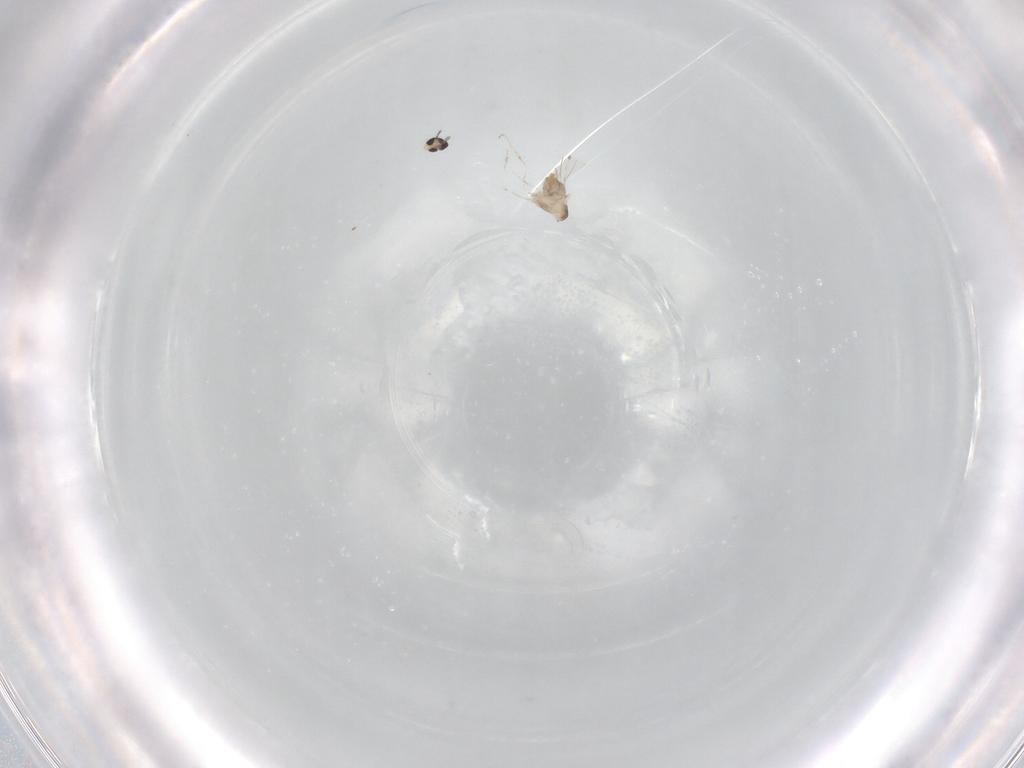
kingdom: Animalia
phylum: Arthropoda
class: Insecta
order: Diptera
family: Cecidomyiidae
